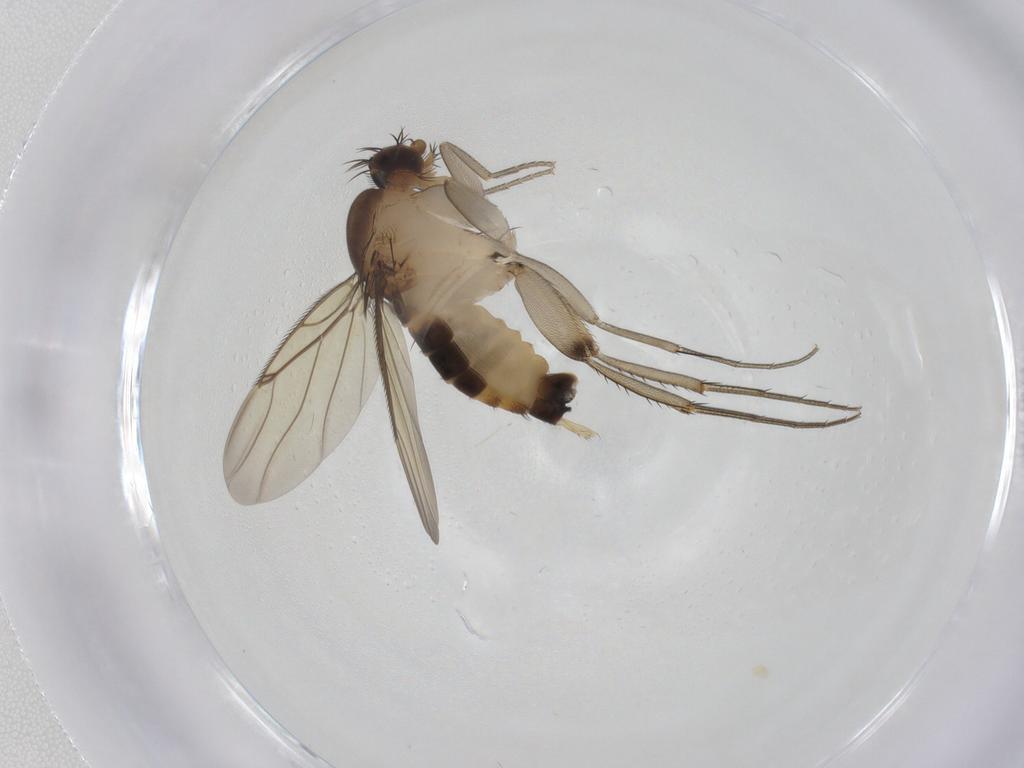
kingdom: Animalia
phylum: Arthropoda
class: Insecta
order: Diptera
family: Phoridae
